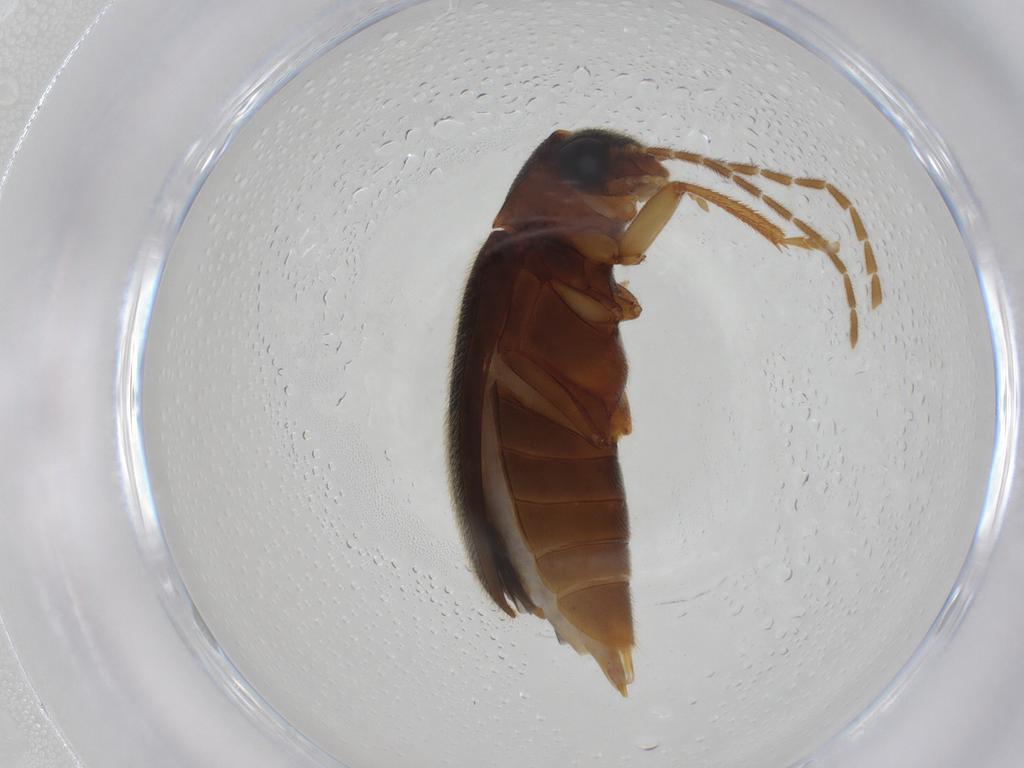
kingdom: Animalia
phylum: Arthropoda
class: Insecta
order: Coleoptera
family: Ptilodactylidae
